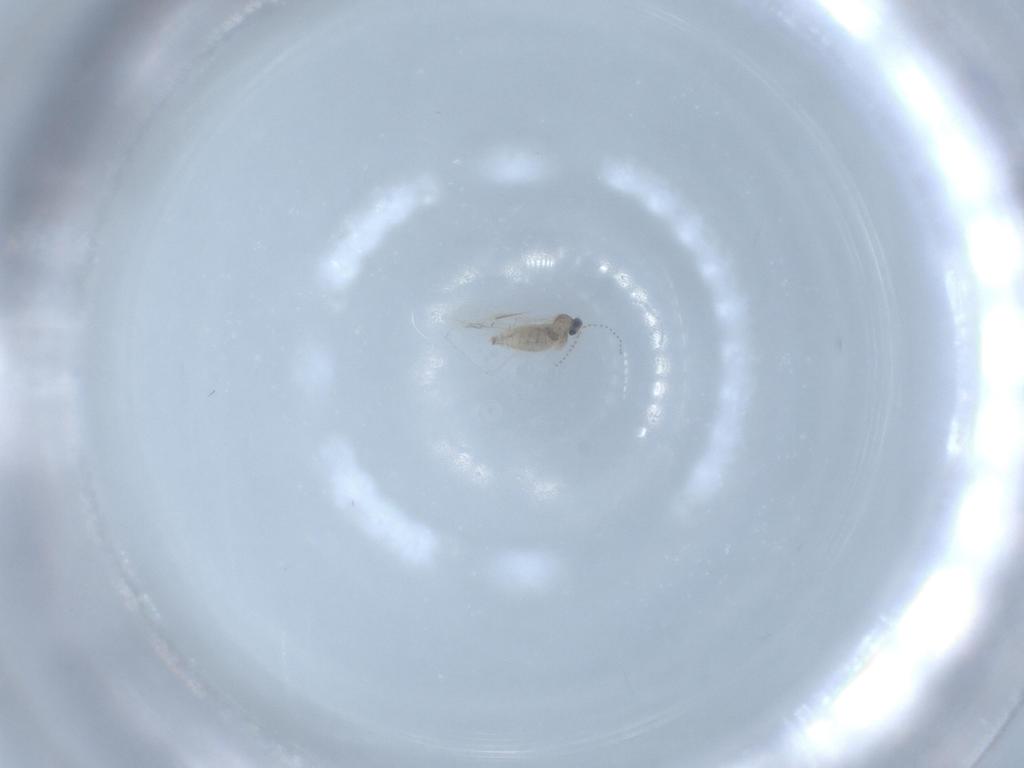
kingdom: Animalia
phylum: Arthropoda
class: Insecta
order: Diptera
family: Cecidomyiidae
